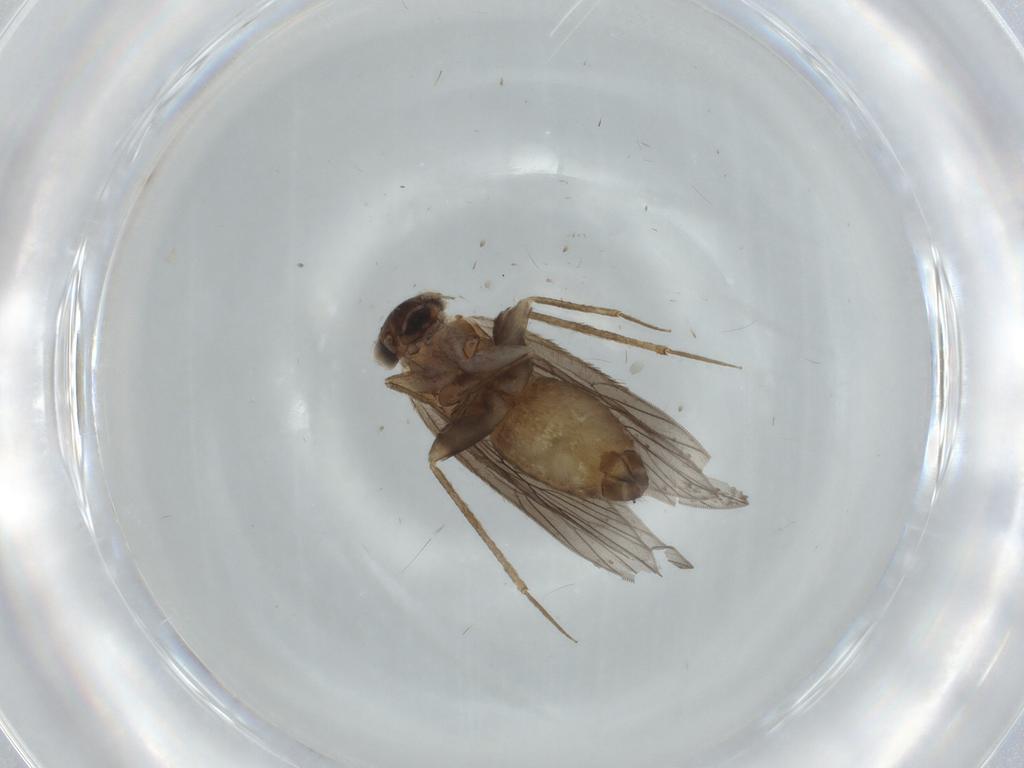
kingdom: Animalia
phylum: Arthropoda
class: Insecta
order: Psocodea
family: Lepidopsocidae
